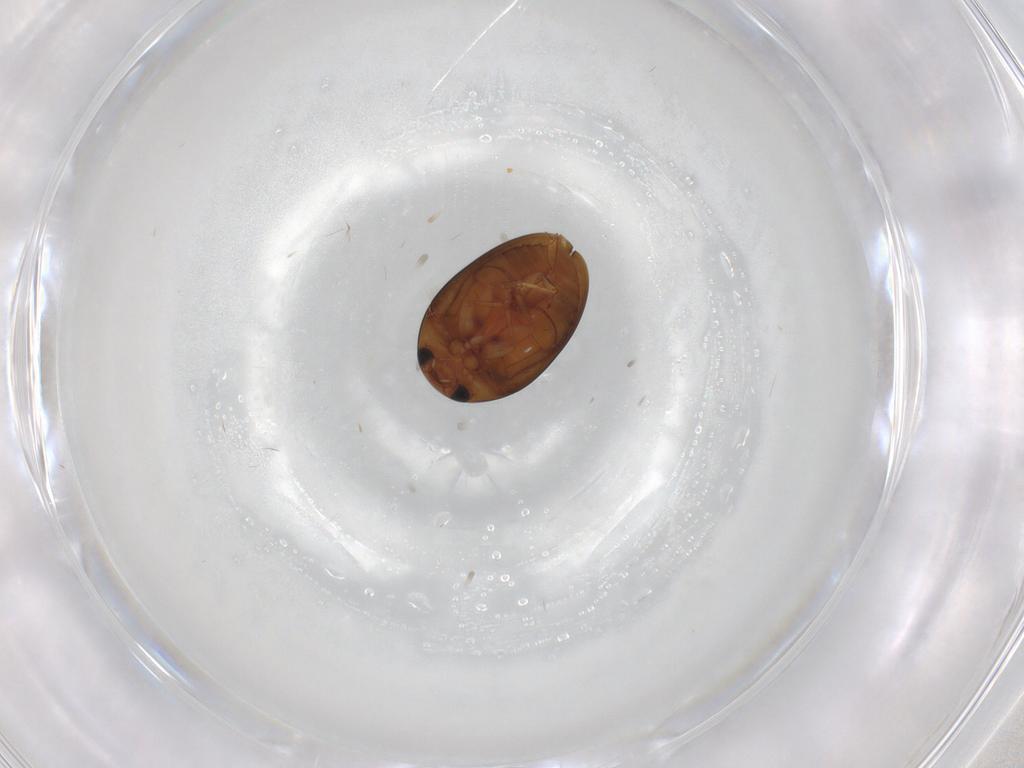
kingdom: Animalia
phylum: Arthropoda
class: Insecta
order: Coleoptera
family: Phalacridae
